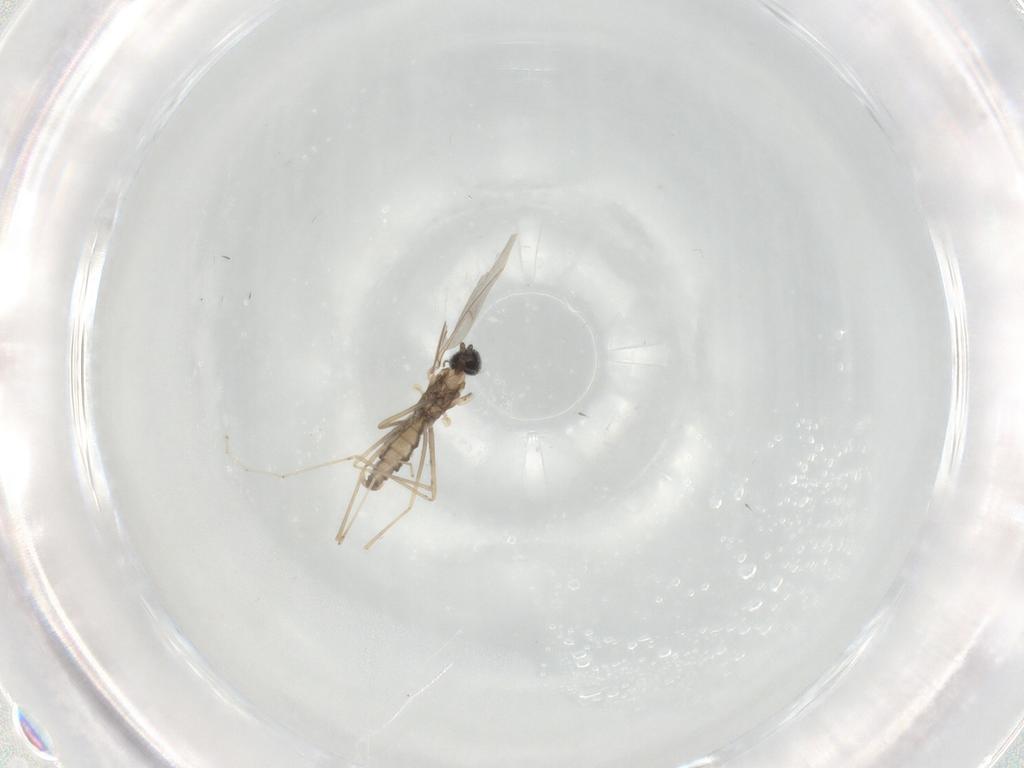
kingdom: Animalia
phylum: Arthropoda
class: Insecta
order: Diptera
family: Cecidomyiidae
